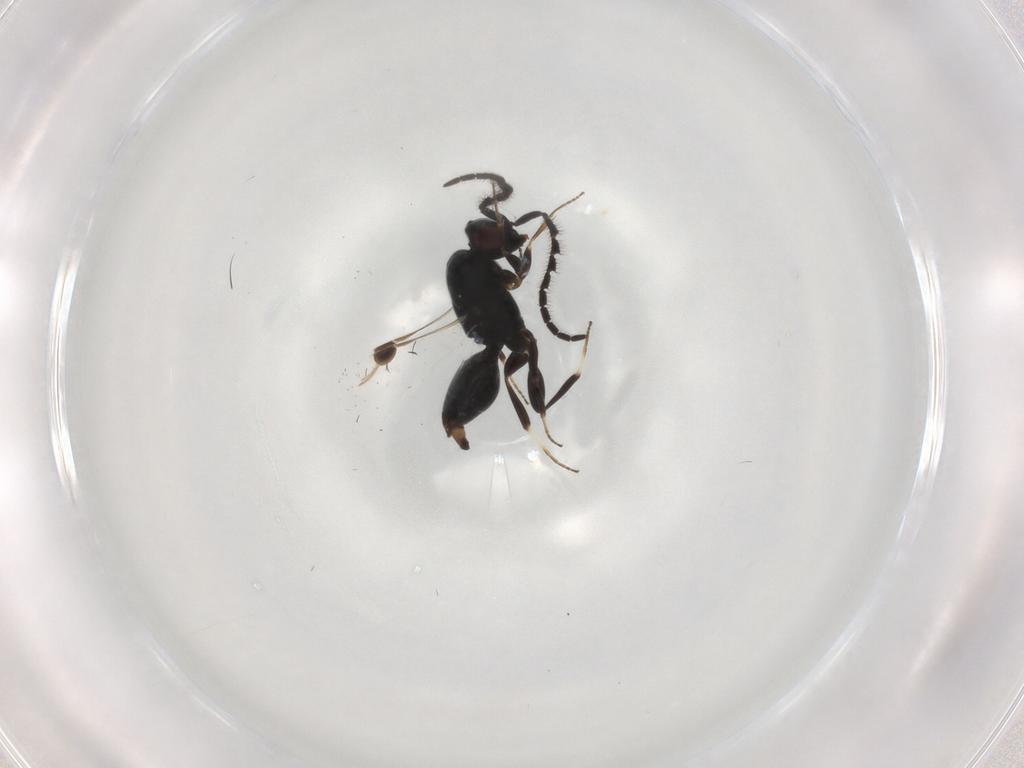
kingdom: Animalia
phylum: Arthropoda
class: Insecta
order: Hymenoptera
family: Megaspilidae
